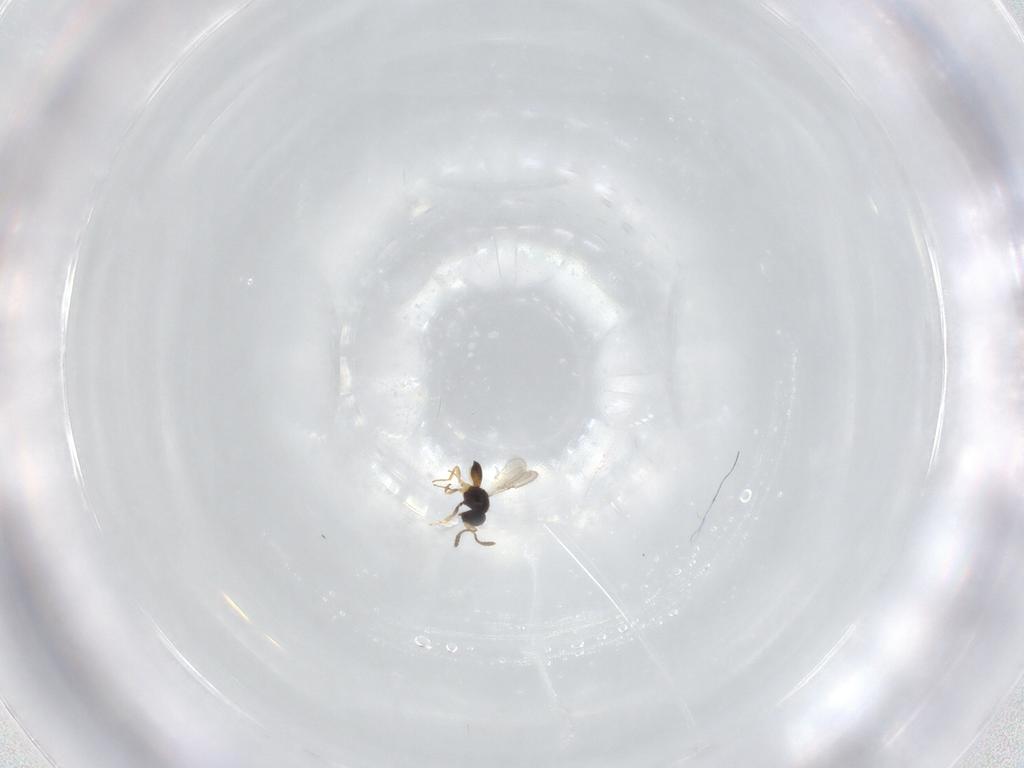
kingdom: Animalia
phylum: Arthropoda
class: Insecta
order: Hymenoptera
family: Scelionidae
